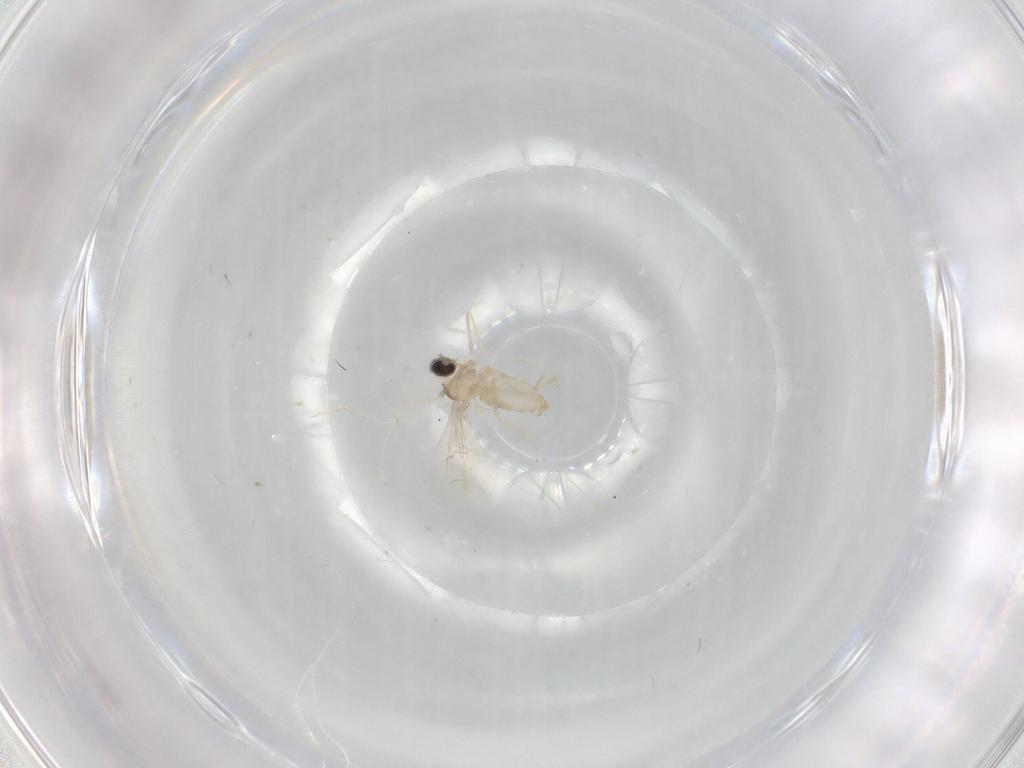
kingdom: Animalia
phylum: Arthropoda
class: Insecta
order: Diptera
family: Cecidomyiidae
